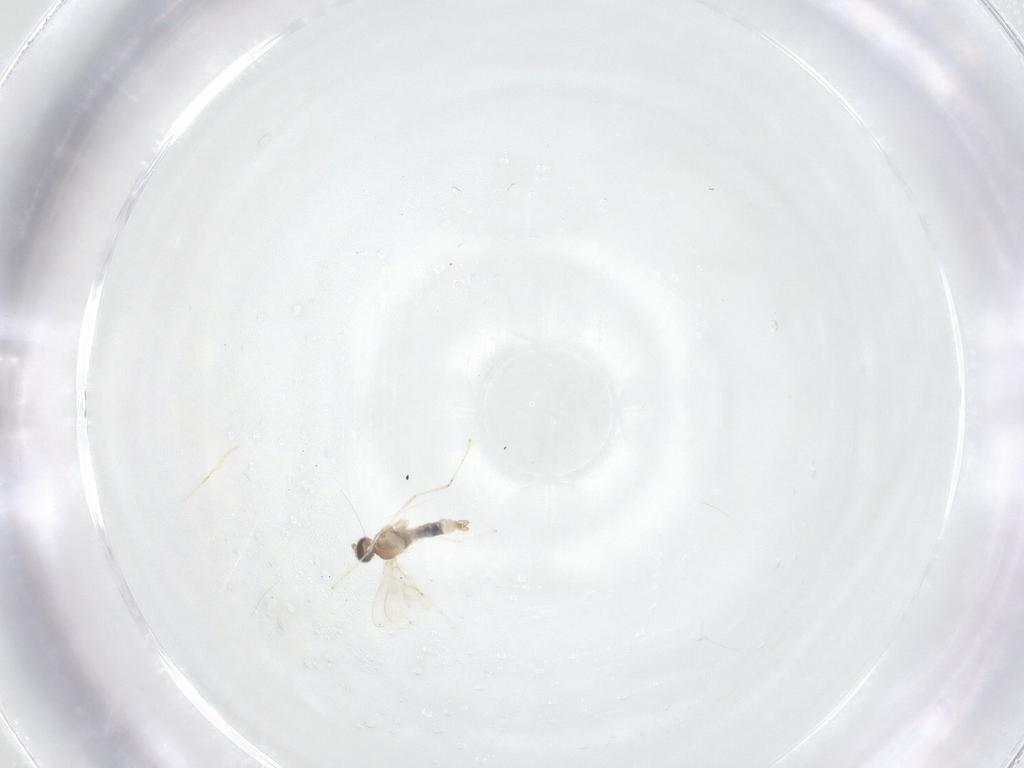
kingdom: Animalia
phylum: Arthropoda
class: Insecta
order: Diptera
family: Cecidomyiidae
